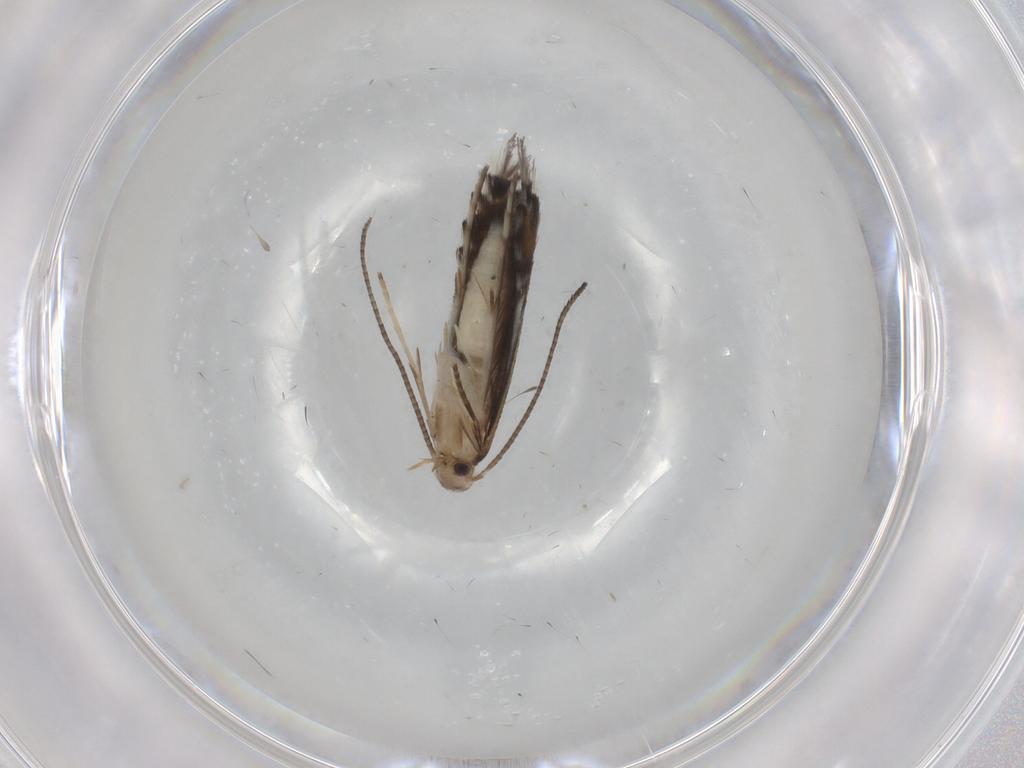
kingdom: Animalia
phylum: Arthropoda
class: Insecta
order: Lepidoptera
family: Gracillariidae
